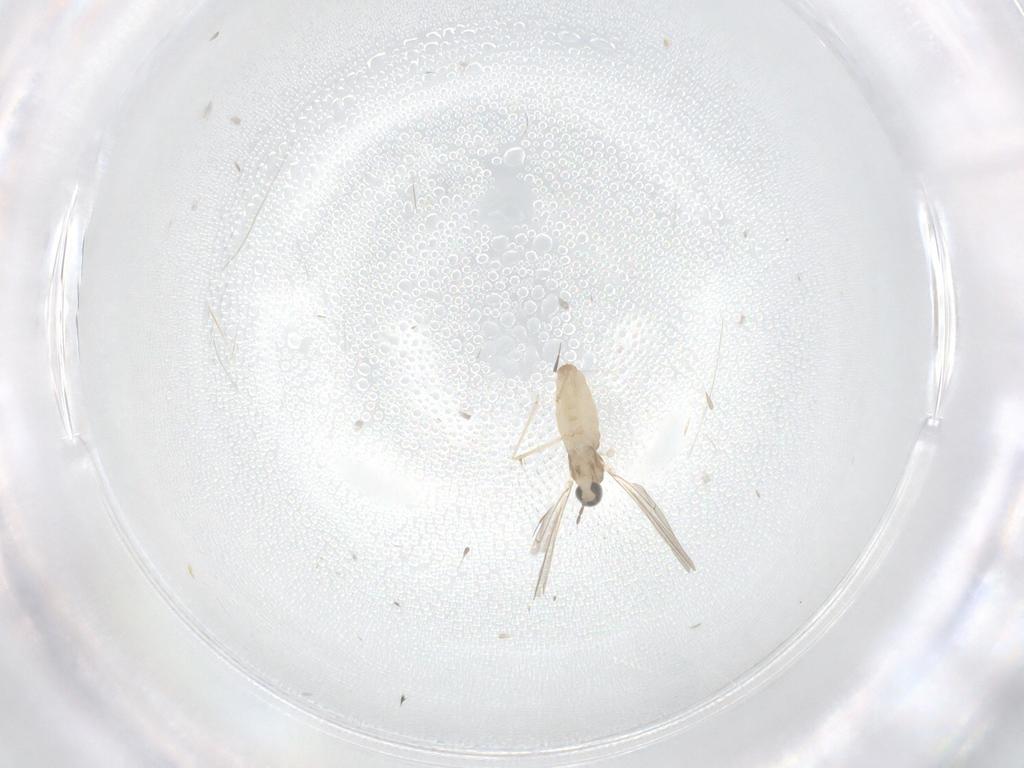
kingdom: Animalia
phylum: Arthropoda
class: Insecta
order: Diptera
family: Cecidomyiidae
